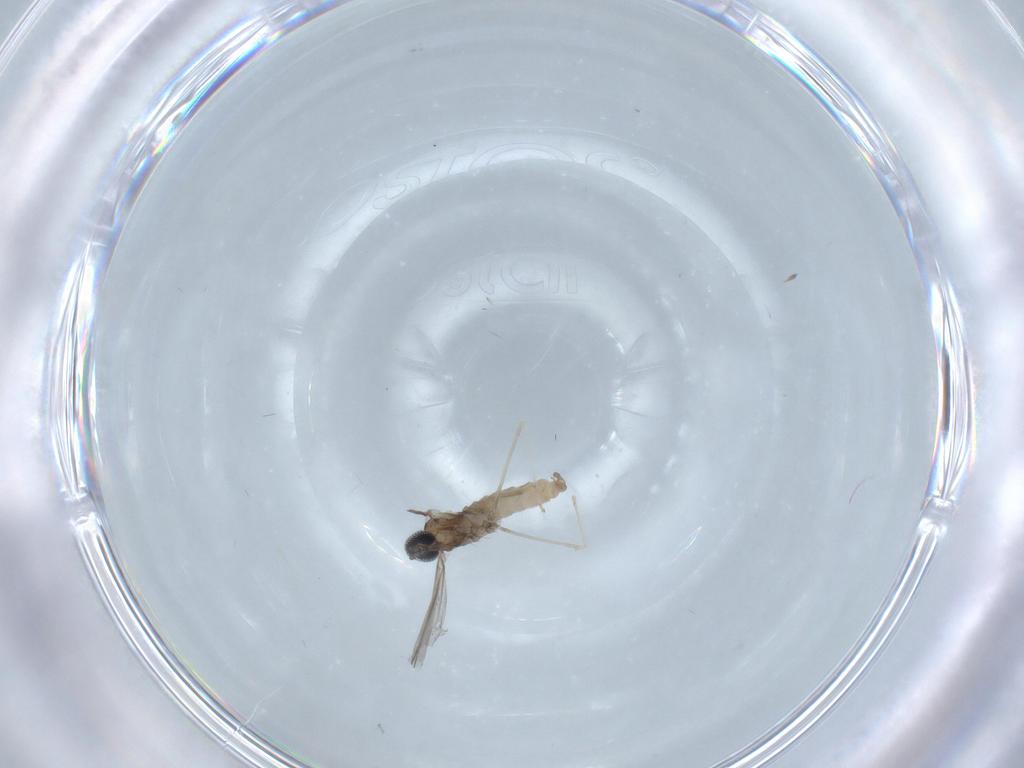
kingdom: Animalia
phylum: Arthropoda
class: Insecta
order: Diptera
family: Cecidomyiidae
